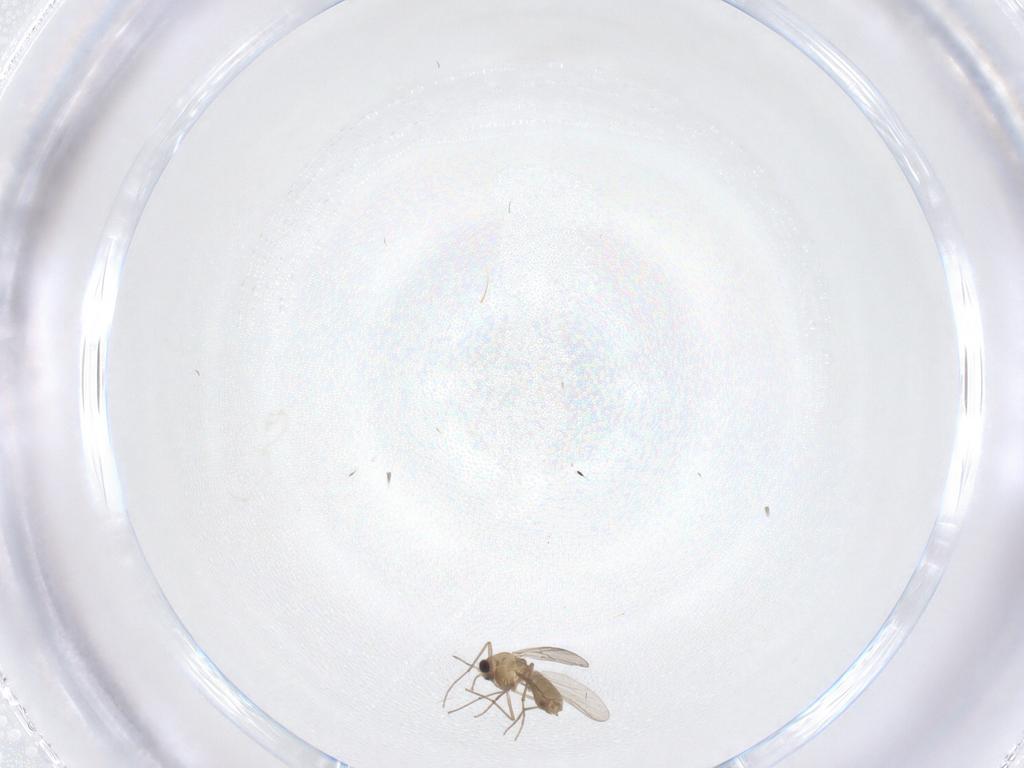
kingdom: Animalia
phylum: Arthropoda
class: Insecta
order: Diptera
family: Chironomidae
